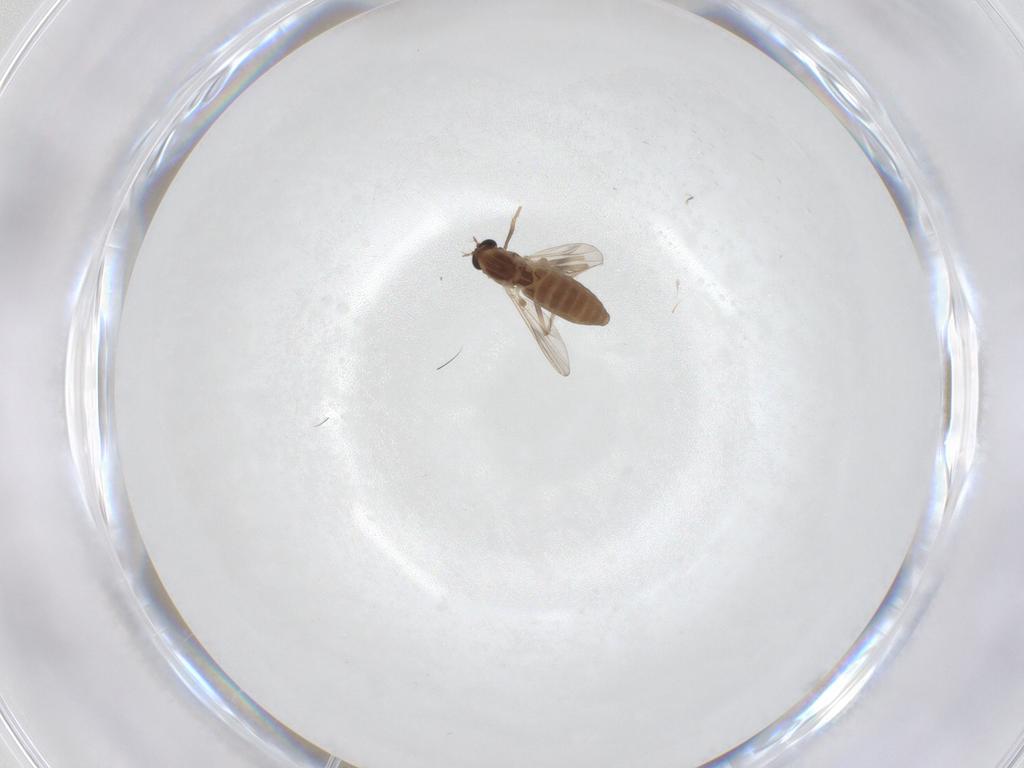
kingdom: Animalia
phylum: Arthropoda
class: Insecta
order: Diptera
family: Chironomidae
